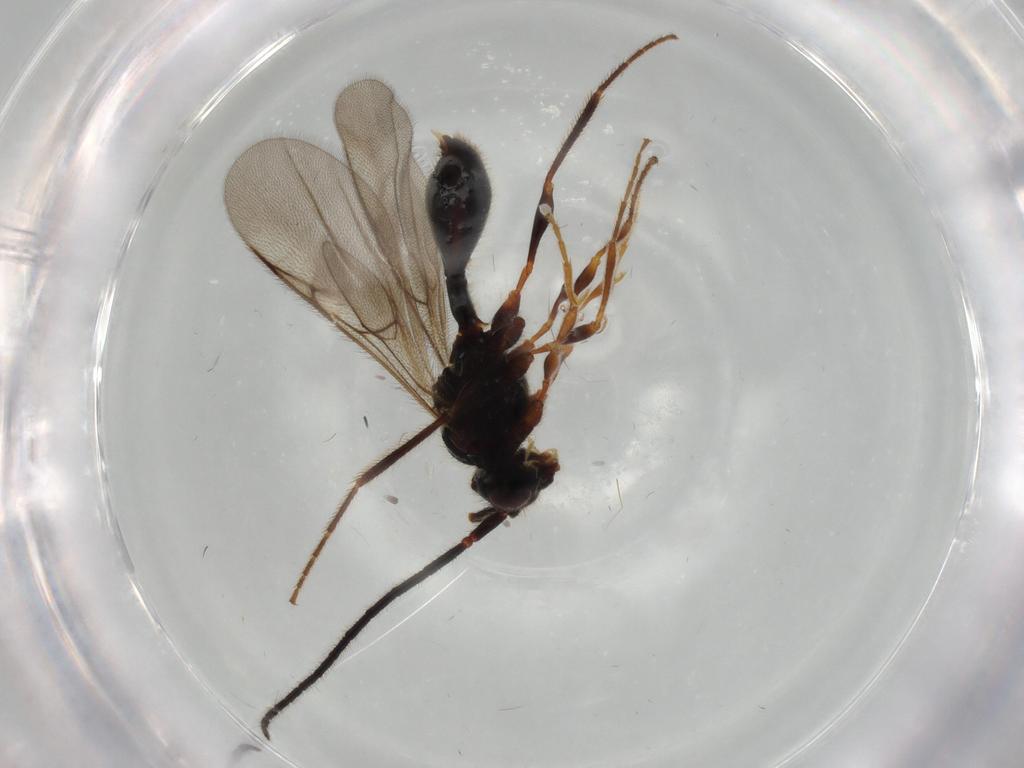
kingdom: Animalia
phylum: Arthropoda
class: Insecta
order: Hymenoptera
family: Diapriidae
